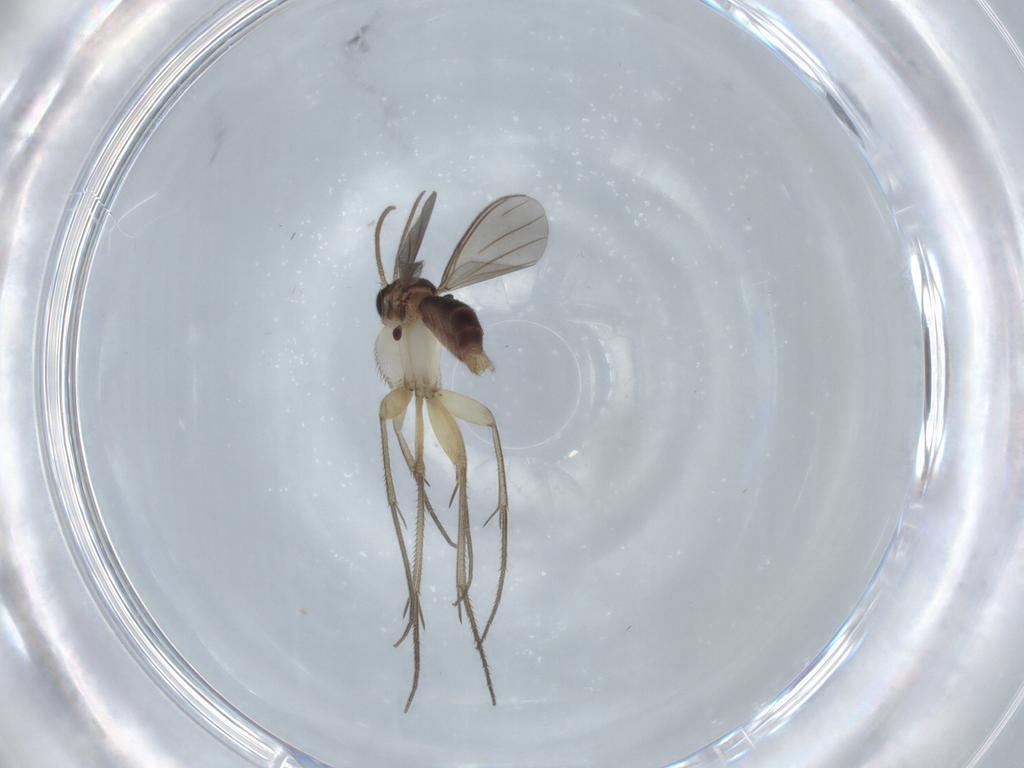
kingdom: Animalia
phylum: Arthropoda
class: Insecta
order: Diptera
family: Cecidomyiidae
